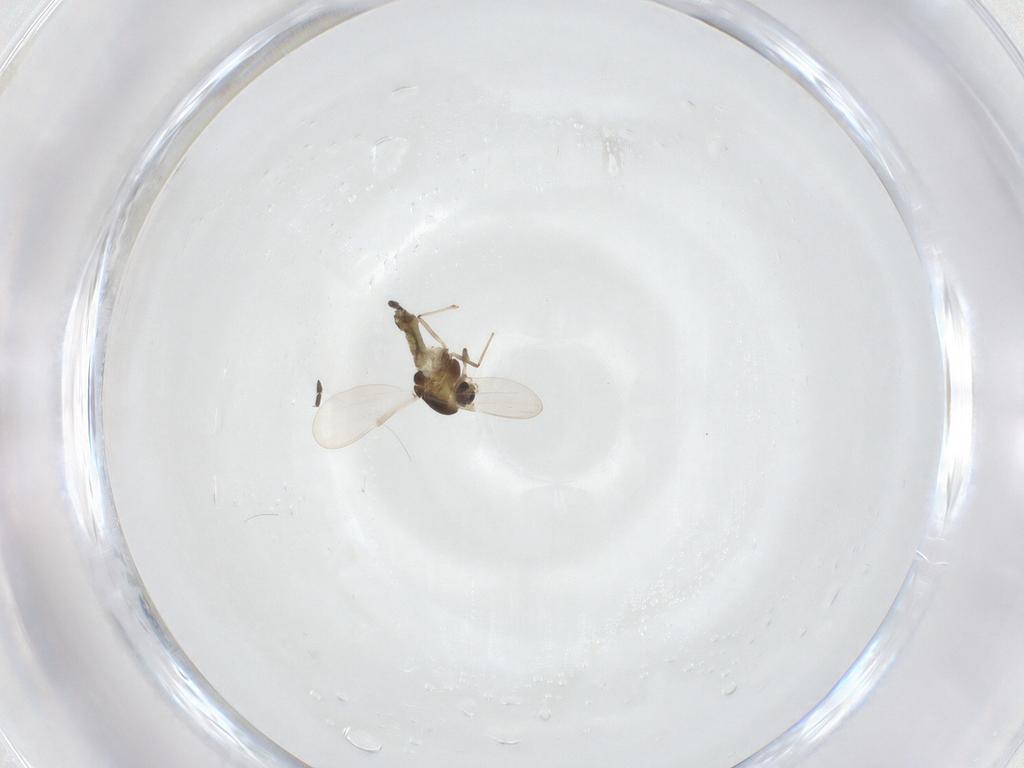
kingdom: Animalia
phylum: Arthropoda
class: Insecta
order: Diptera
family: Chironomidae
